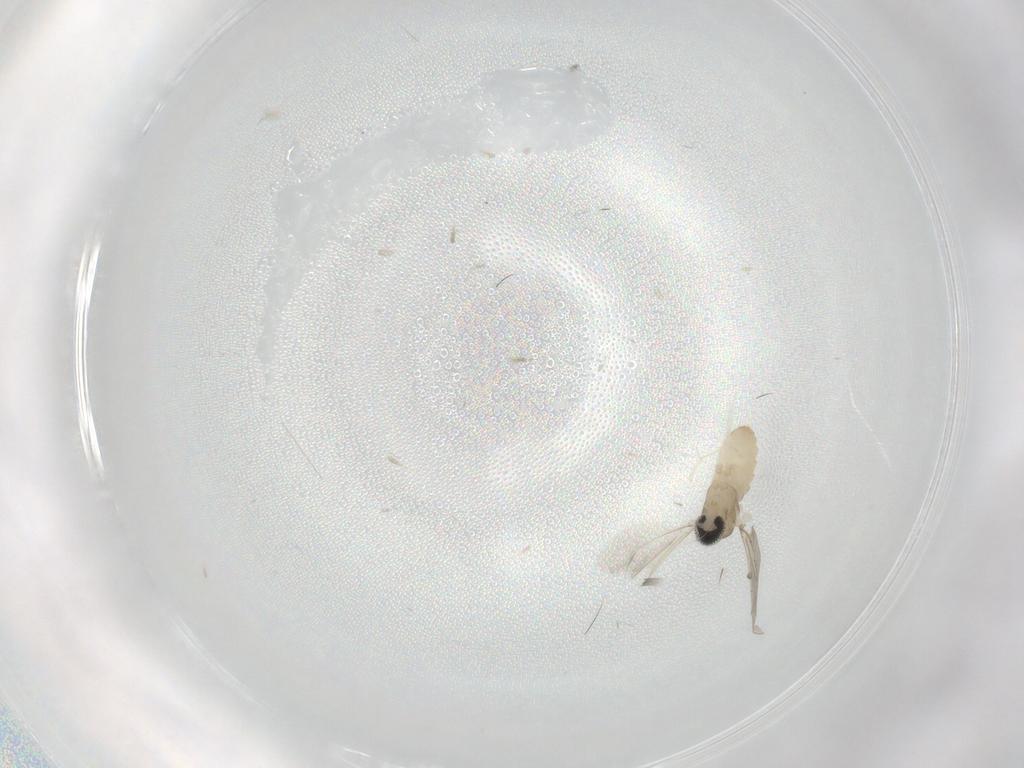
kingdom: Animalia
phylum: Arthropoda
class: Insecta
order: Diptera
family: Cecidomyiidae
